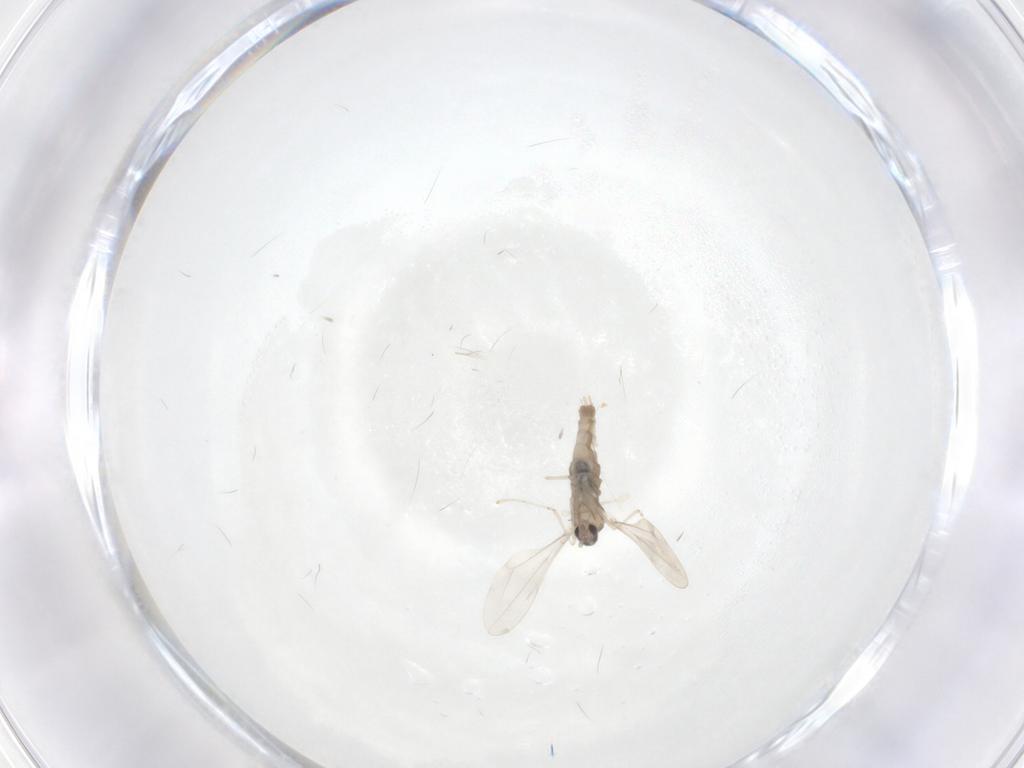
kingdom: Animalia
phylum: Arthropoda
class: Insecta
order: Diptera
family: Cecidomyiidae
